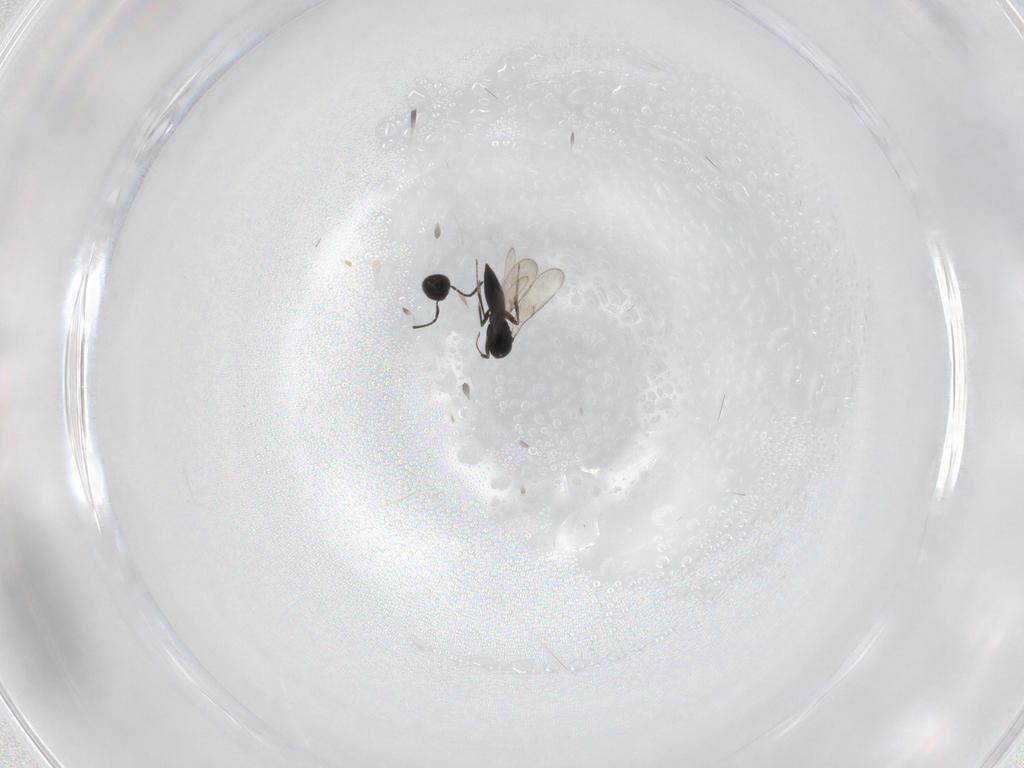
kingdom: Animalia
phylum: Arthropoda
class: Insecta
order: Hymenoptera
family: Scelionidae
